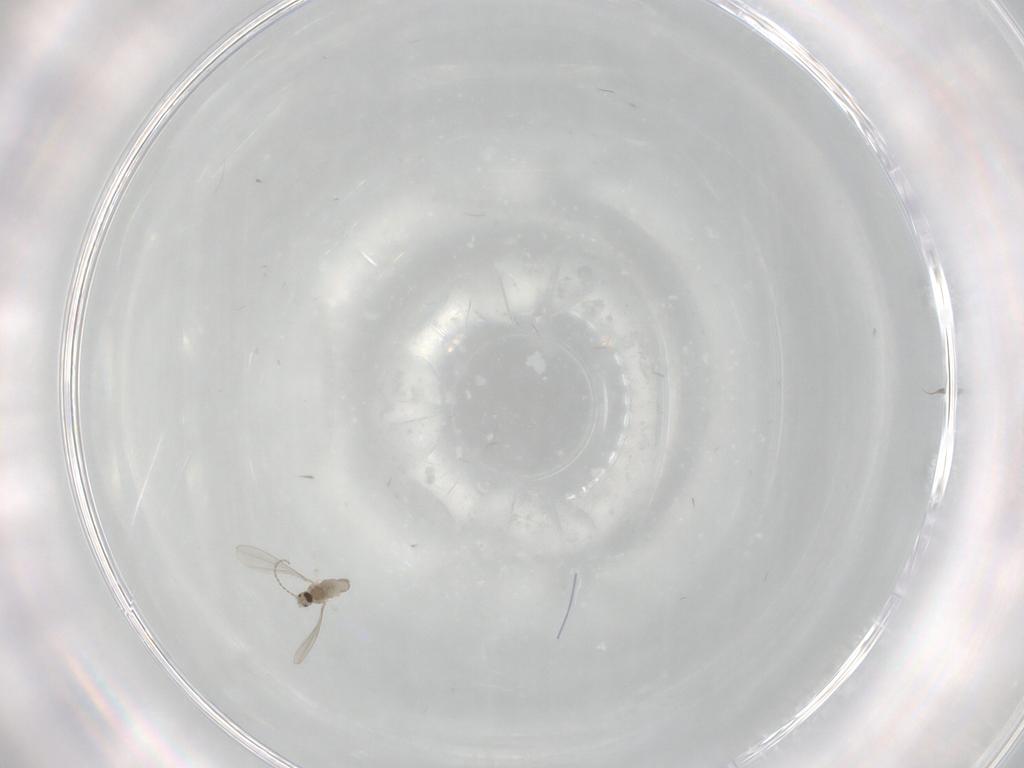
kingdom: Animalia
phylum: Arthropoda
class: Insecta
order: Diptera
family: Cecidomyiidae
